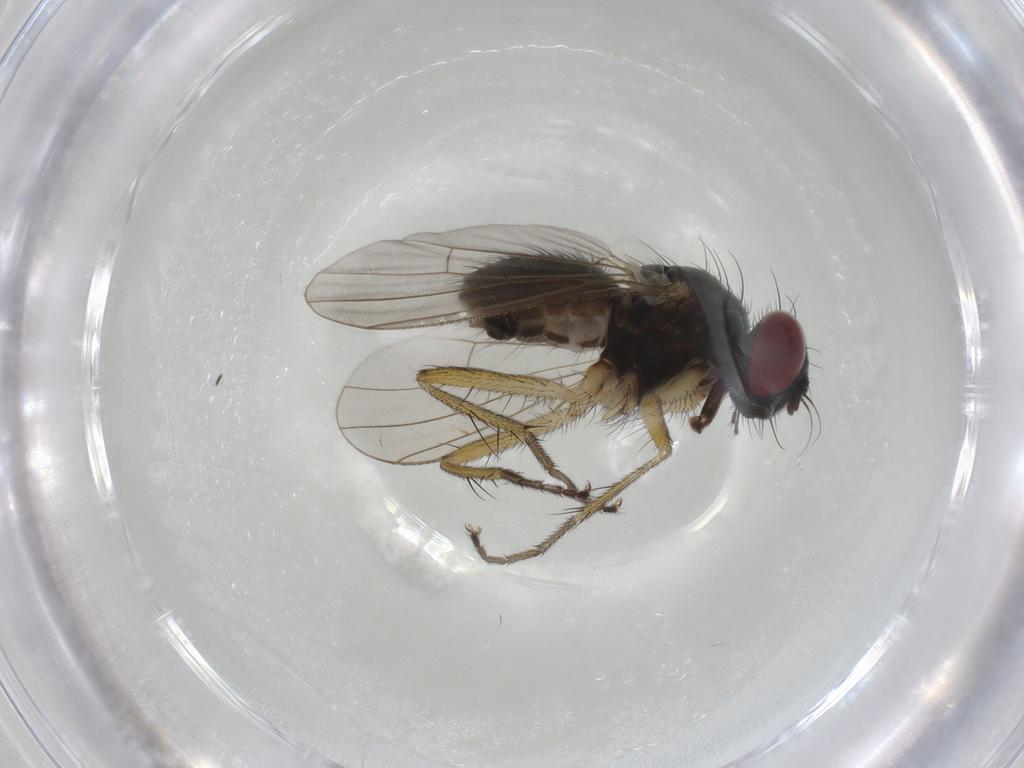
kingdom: Animalia
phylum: Arthropoda
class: Insecta
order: Diptera
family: Muscidae
